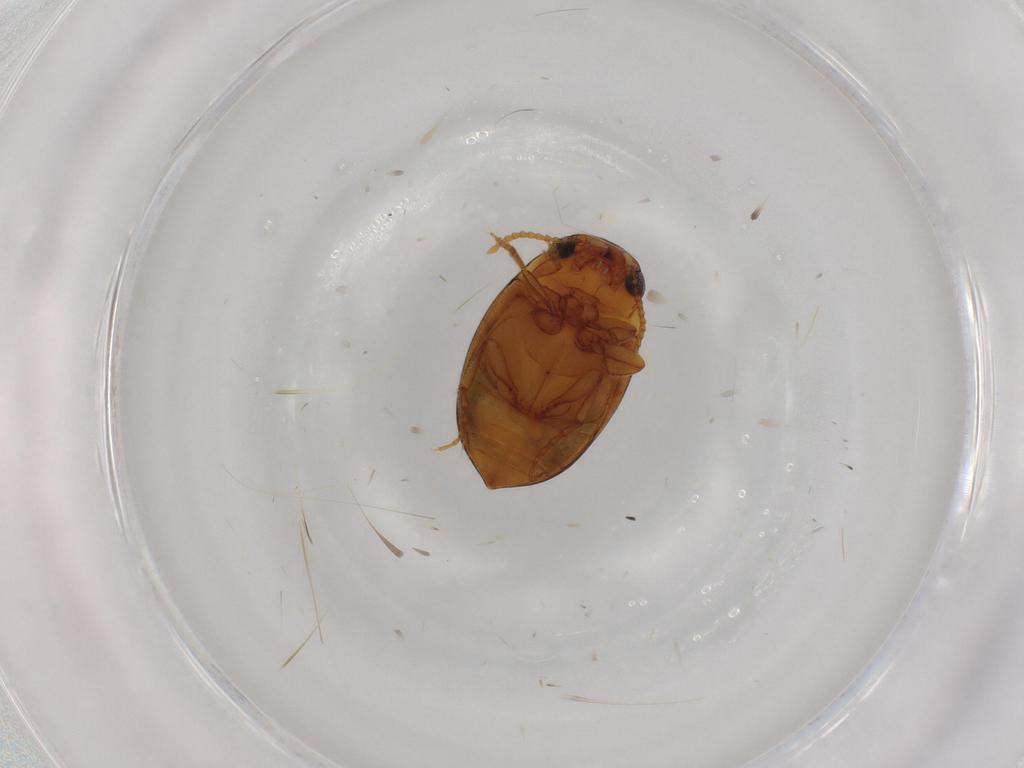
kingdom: Animalia
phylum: Arthropoda
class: Insecta
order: Coleoptera
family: Dytiscidae
